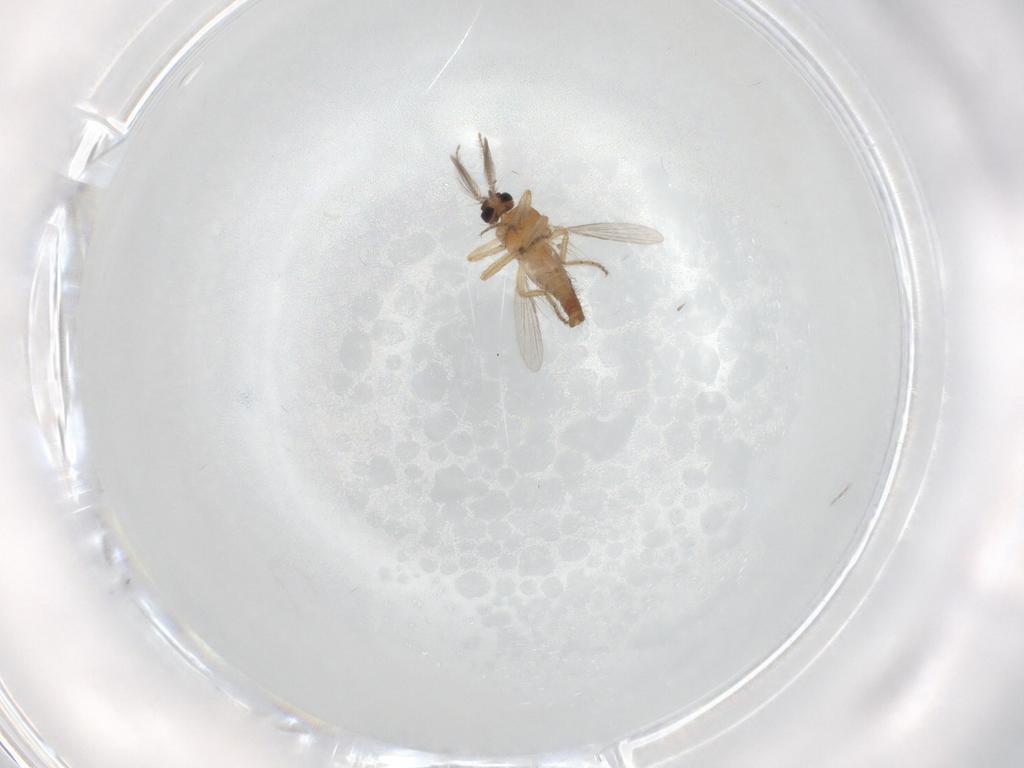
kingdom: Animalia
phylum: Arthropoda
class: Insecta
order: Diptera
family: Ceratopogonidae
